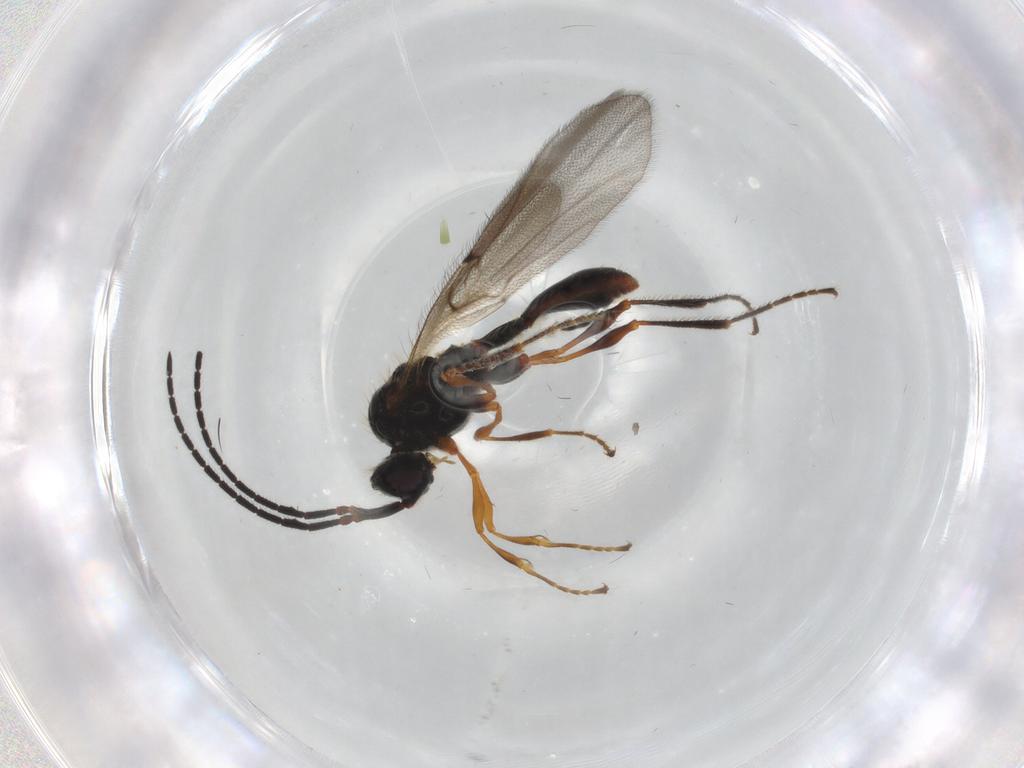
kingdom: Animalia
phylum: Arthropoda
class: Insecta
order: Hymenoptera
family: Diapriidae
